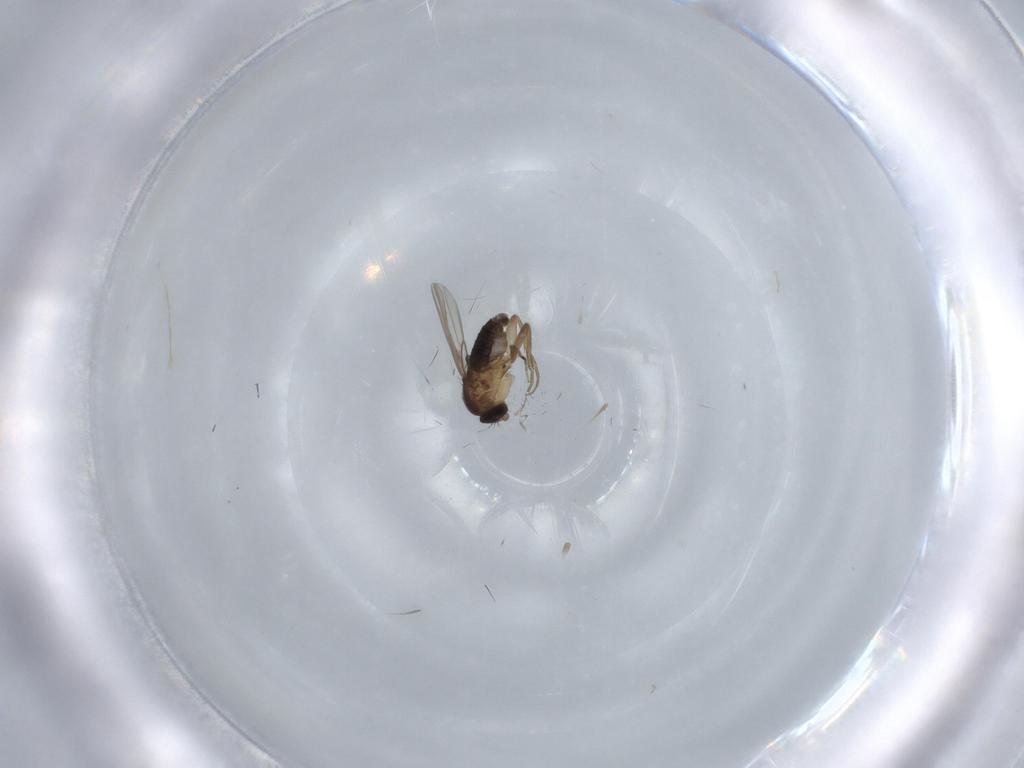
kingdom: Animalia
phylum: Arthropoda
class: Insecta
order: Diptera
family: Phoridae
